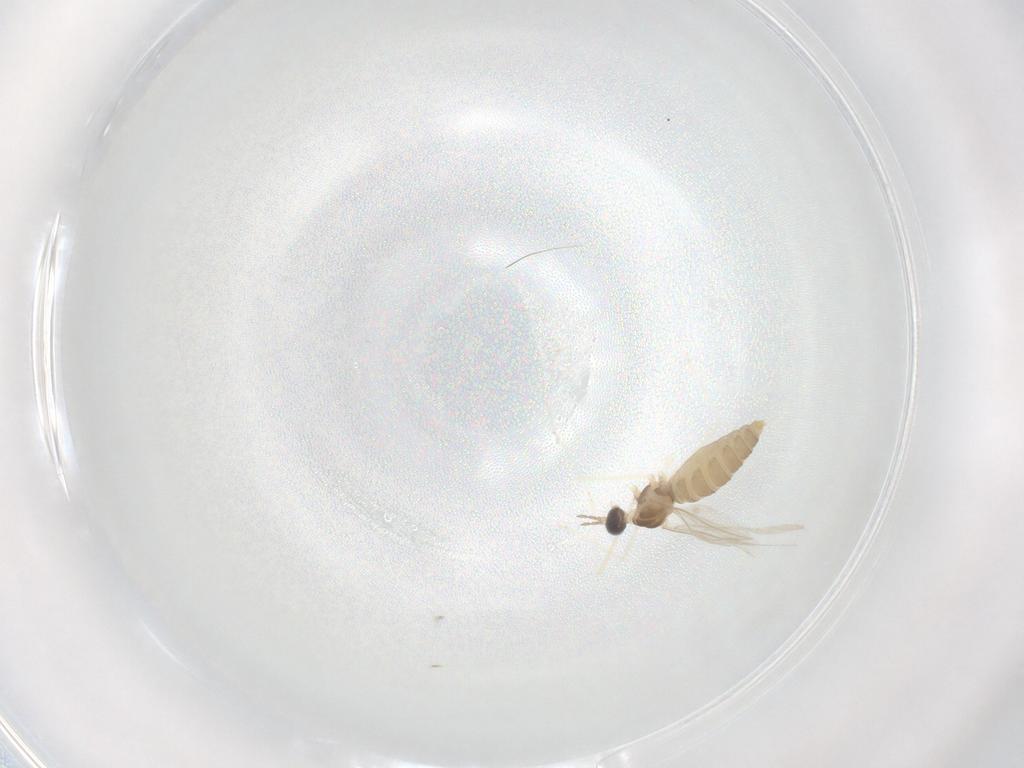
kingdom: Animalia
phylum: Arthropoda
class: Insecta
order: Diptera
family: Cecidomyiidae
